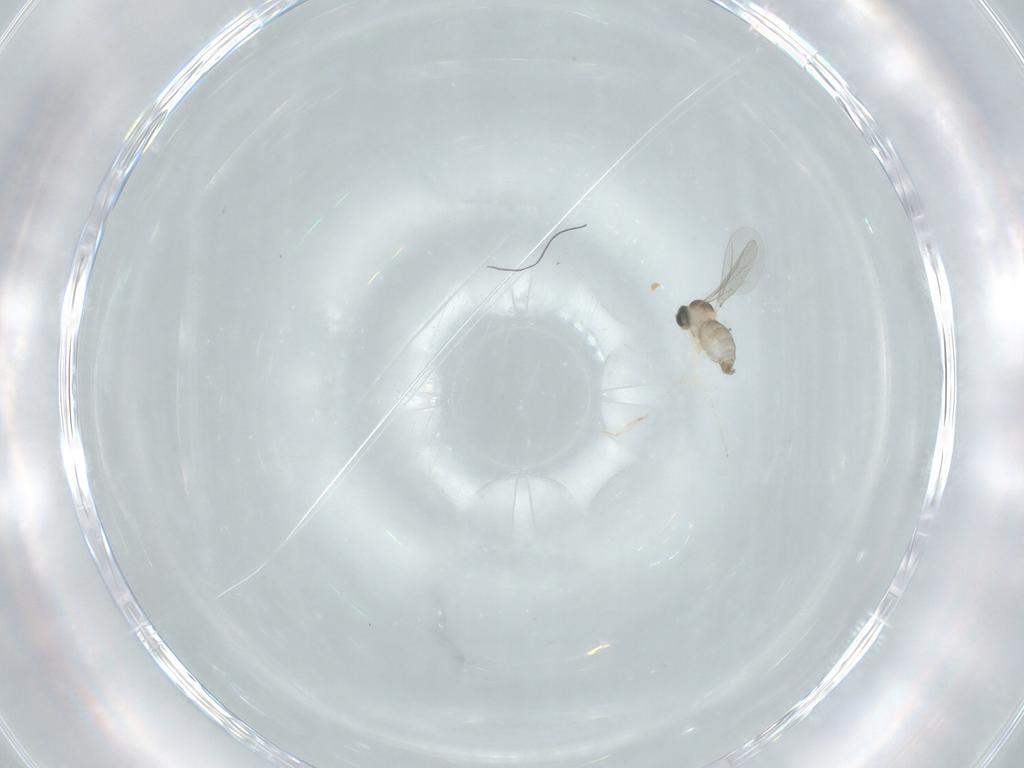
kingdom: Animalia
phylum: Arthropoda
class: Insecta
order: Diptera
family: Cecidomyiidae
